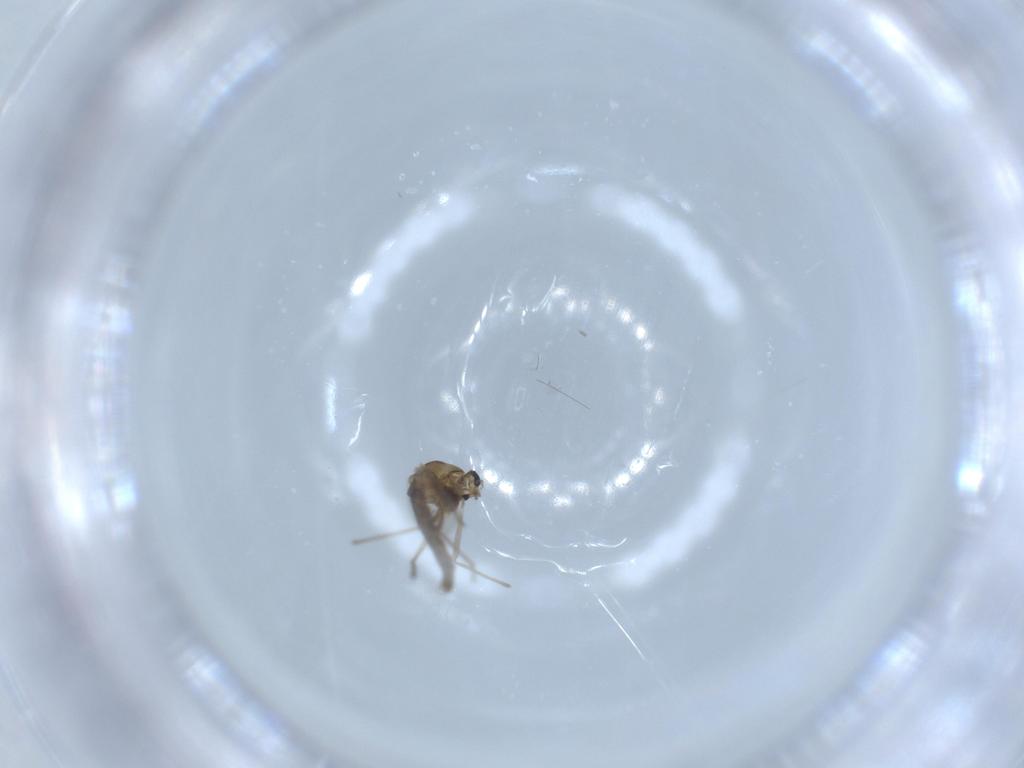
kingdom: Animalia
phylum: Arthropoda
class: Insecta
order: Diptera
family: Chironomidae
